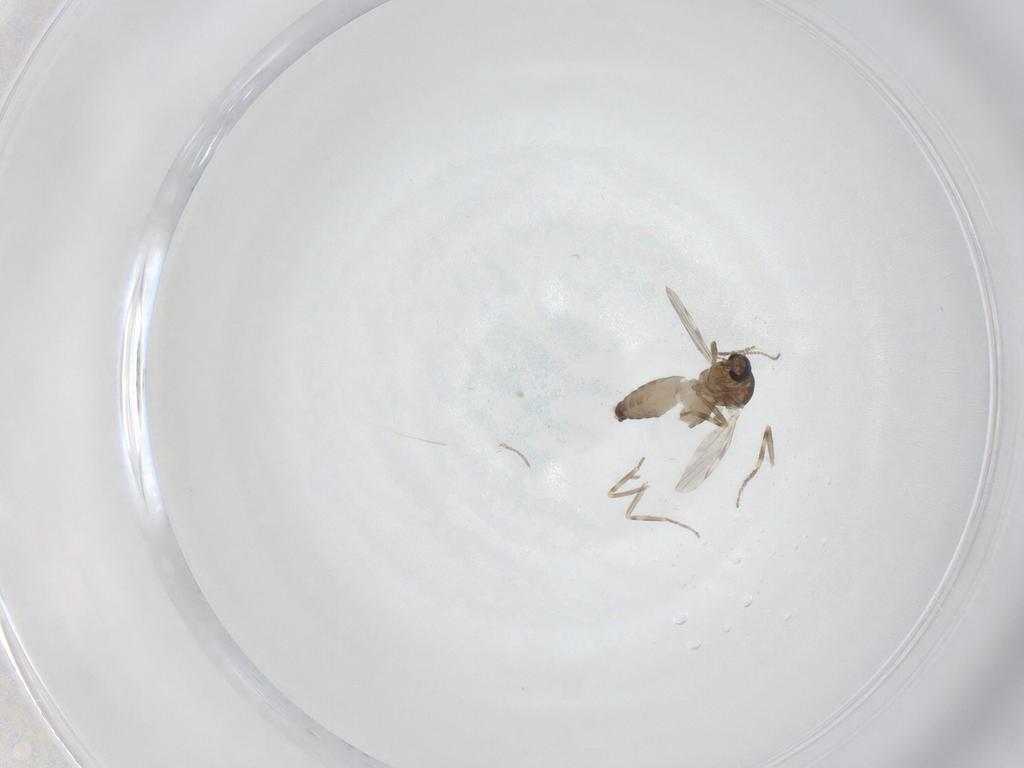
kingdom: Animalia
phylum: Arthropoda
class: Insecta
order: Diptera
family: Ceratopogonidae
